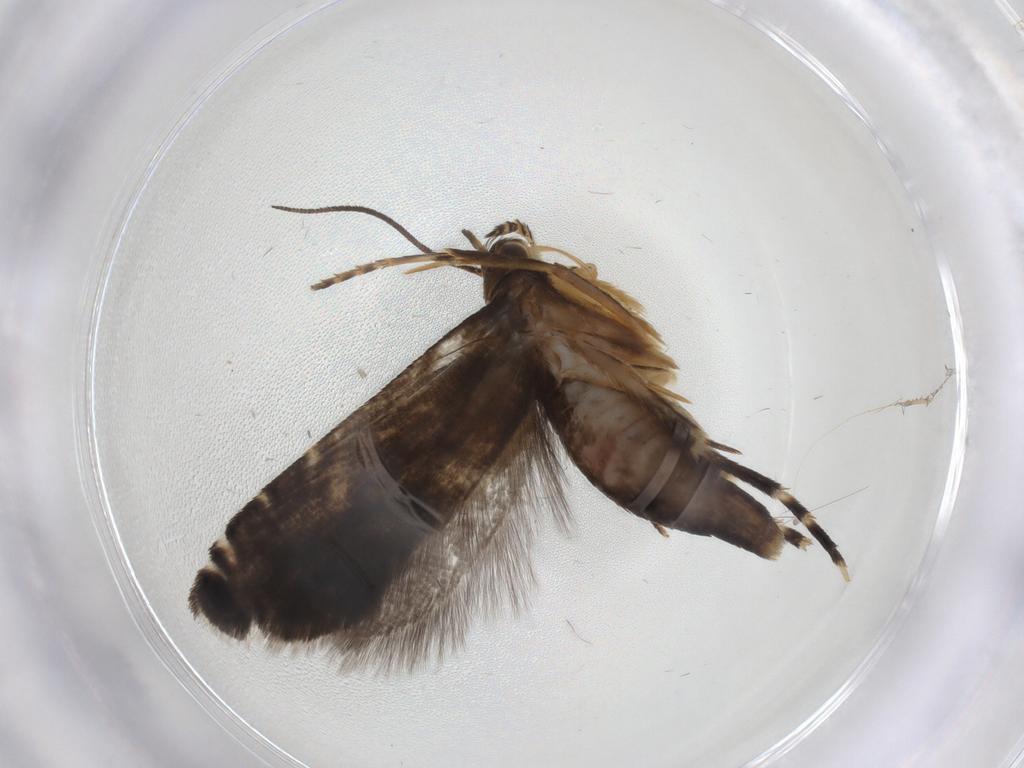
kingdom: Animalia
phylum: Arthropoda
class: Insecta
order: Lepidoptera
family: Glyphipterigidae
